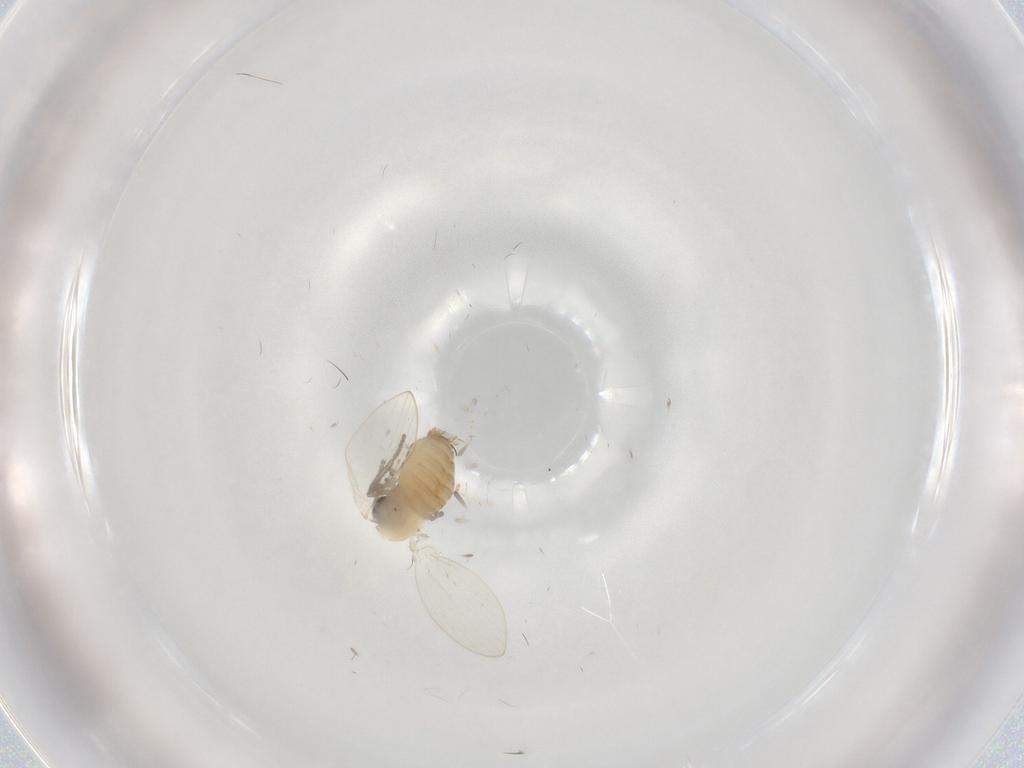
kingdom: Animalia
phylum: Arthropoda
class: Insecta
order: Diptera
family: Psychodidae
